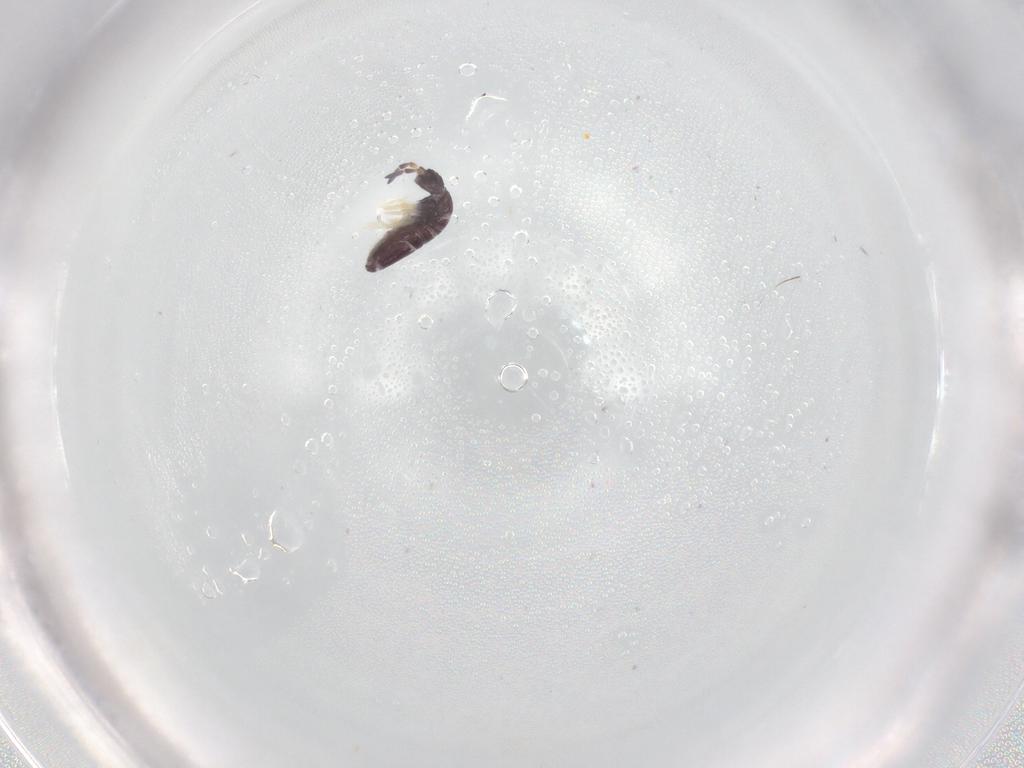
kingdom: Animalia
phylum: Arthropoda
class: Collembola
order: Entomobryomorpha
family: Entomobryidae
